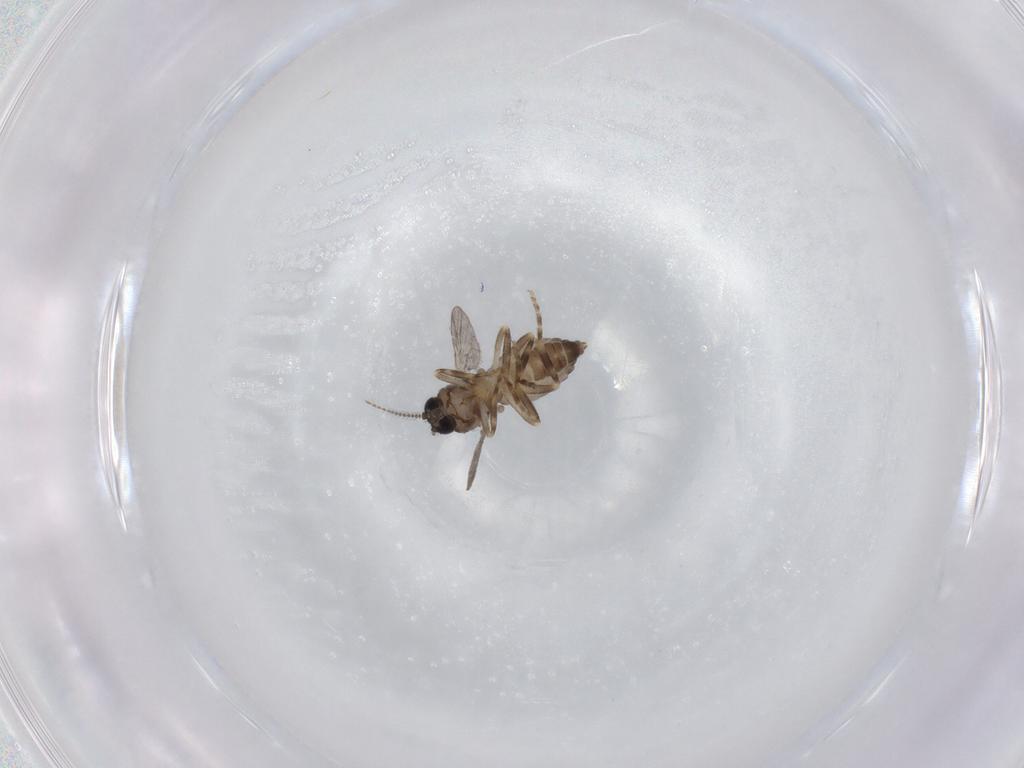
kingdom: Animalia
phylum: Arthropoda
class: Insecta
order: Diptera
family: Ceratopogonidae
